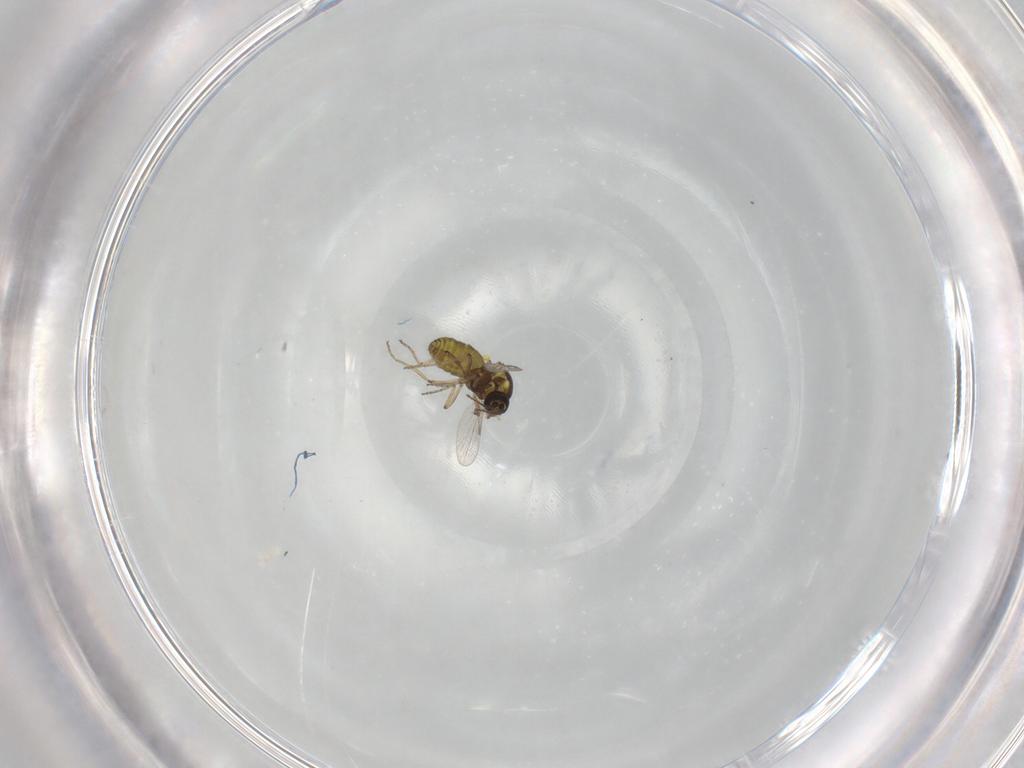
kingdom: Animalia
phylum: Arthropoda
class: Insecta
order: Diptera
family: Ceratopogonidae
